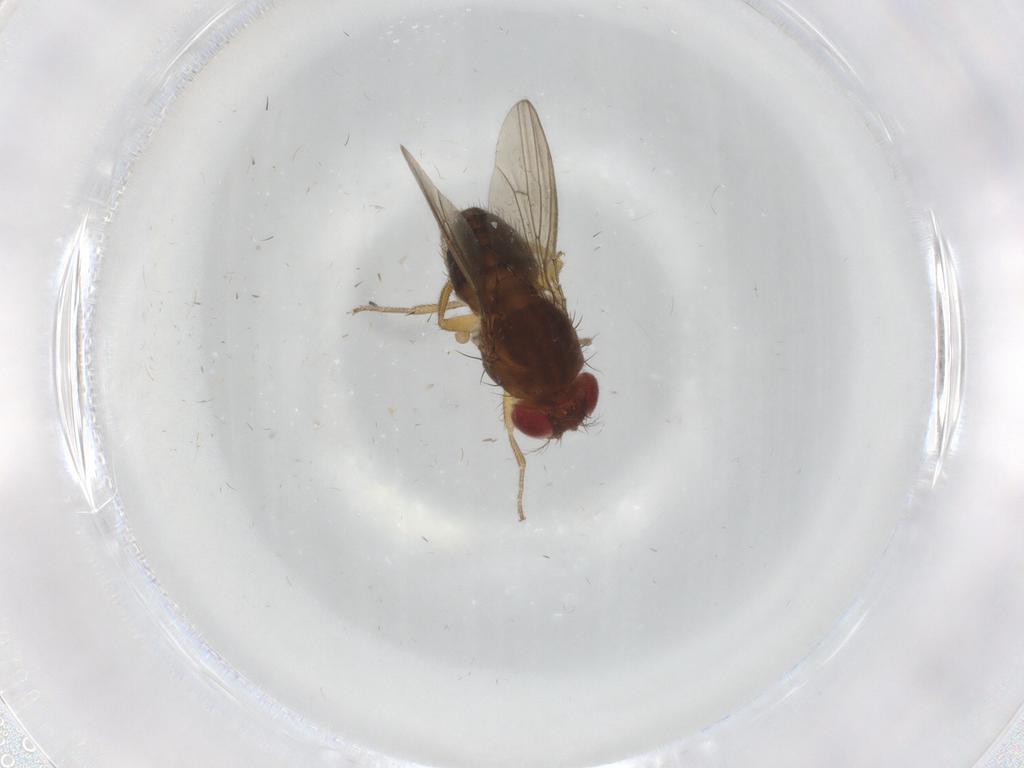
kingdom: Animalia
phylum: Arthropoda
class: Insecta
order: Diptera
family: Drosophilidae
